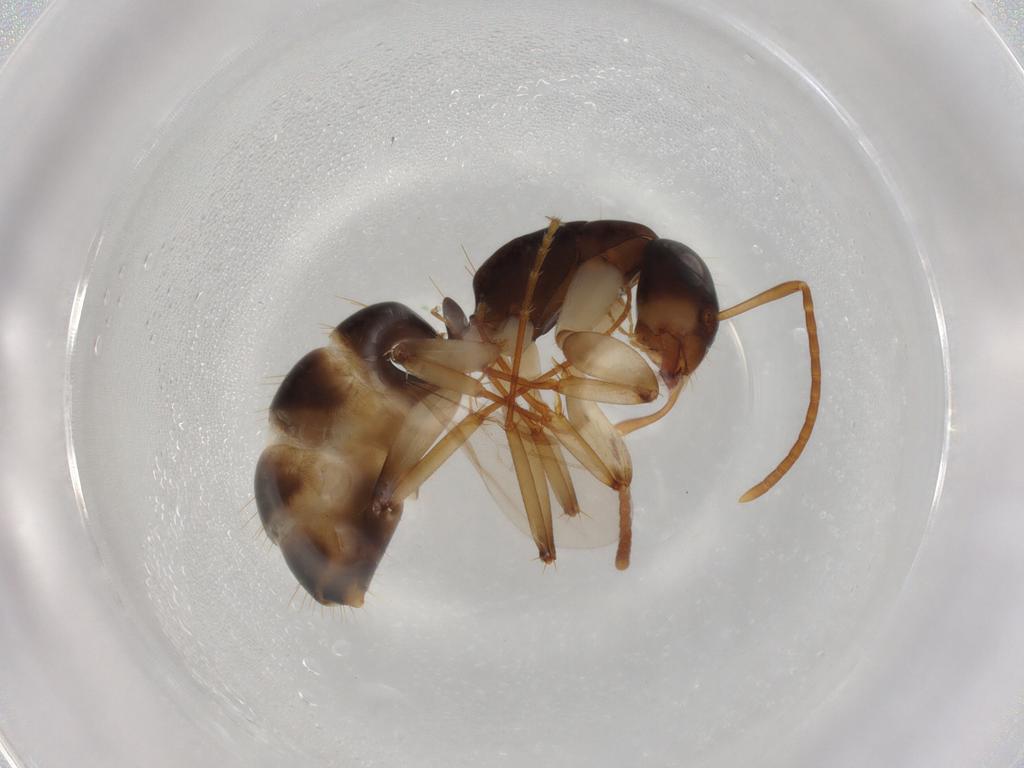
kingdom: Animalia
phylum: Arthropoda
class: Insecta
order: Hymenoptera
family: Formicidae
